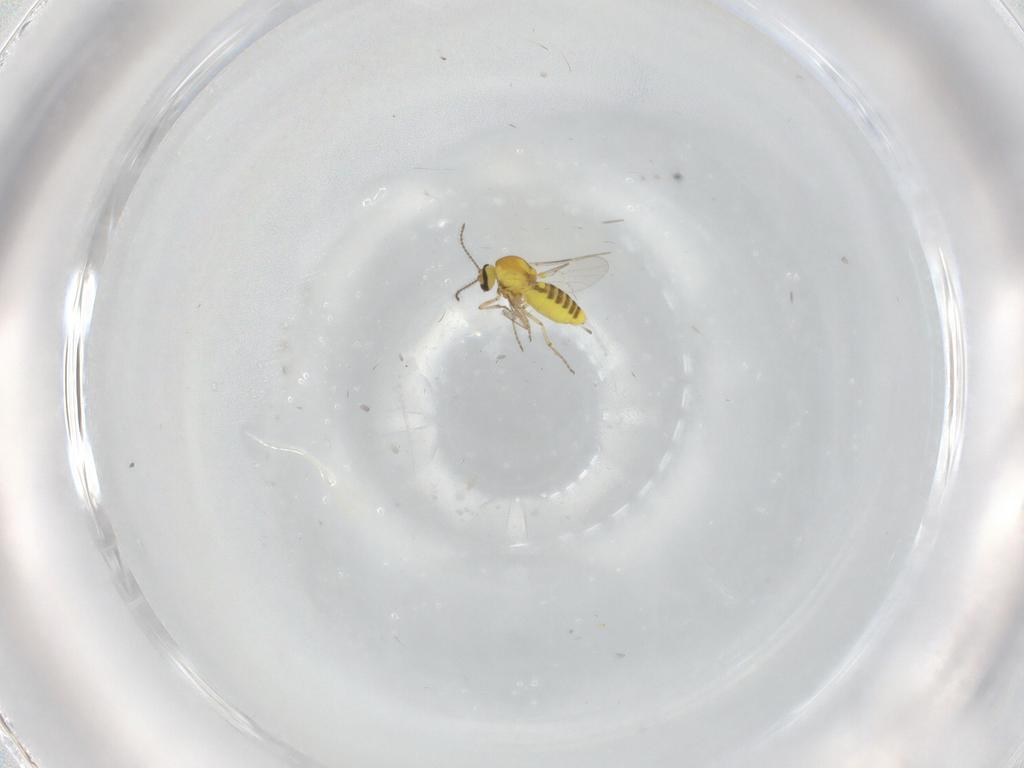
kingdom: Animalia
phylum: Arthropoda
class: Insecta
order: Diptera
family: Ceratopogonidae
